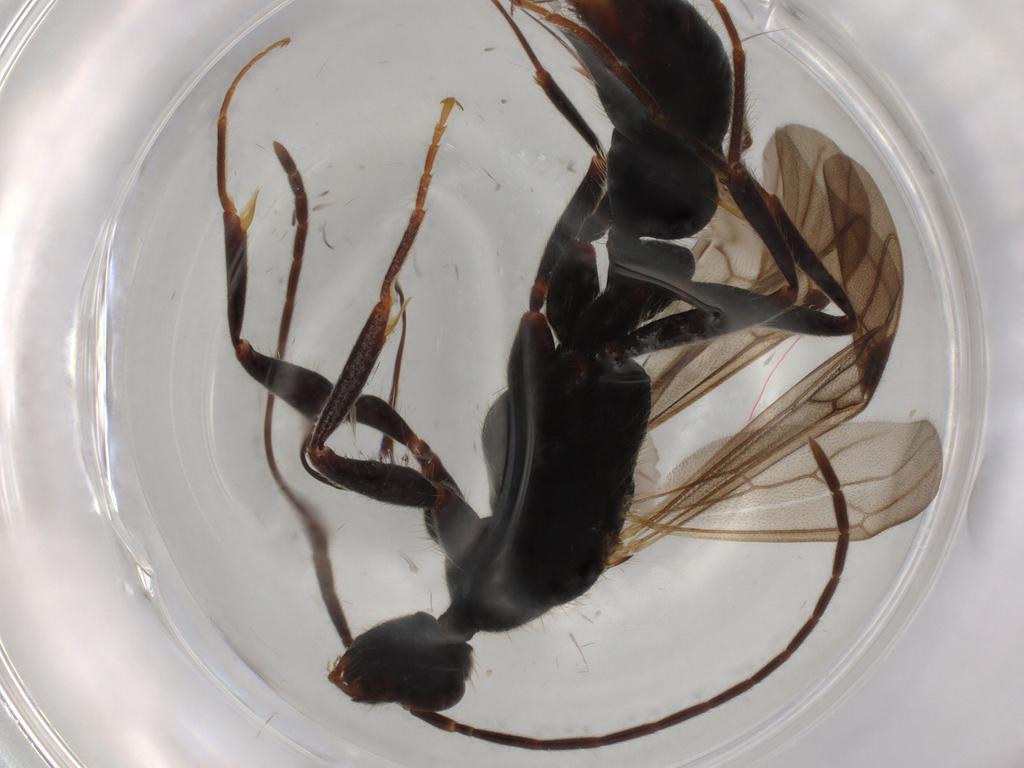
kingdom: Animalia
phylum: Arthropoda
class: Insecta
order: Hymenoptera
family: Formicidae
